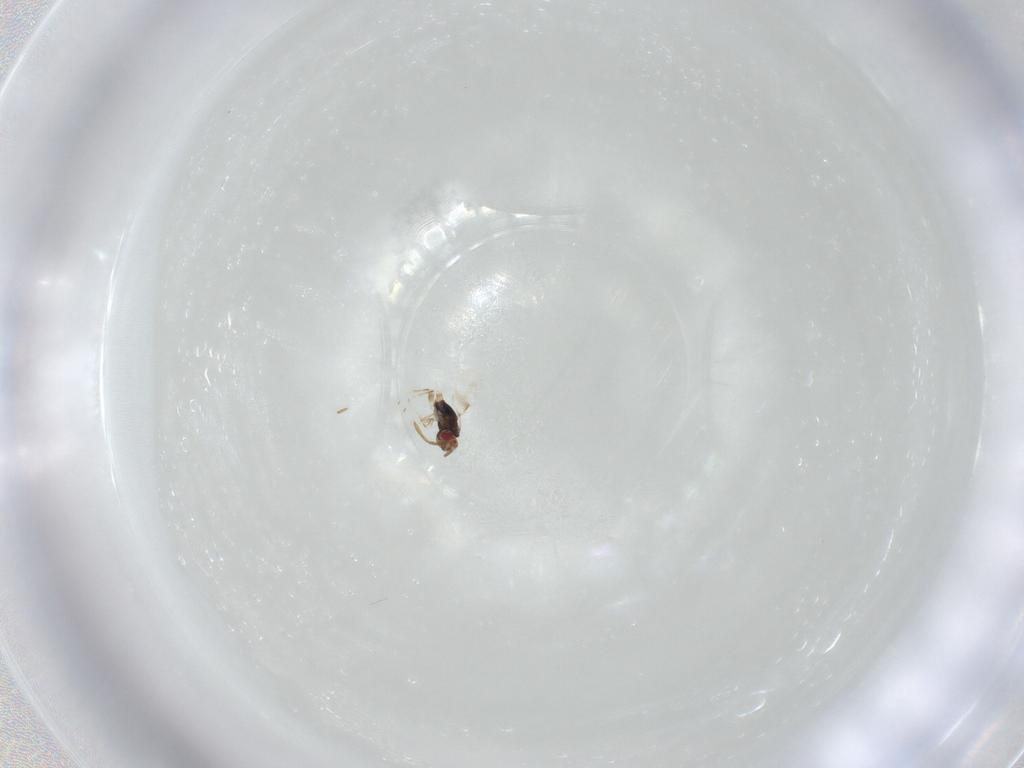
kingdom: Animalia
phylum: Arthropoda
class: Insecta
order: Hymenoptera
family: Azotidae
